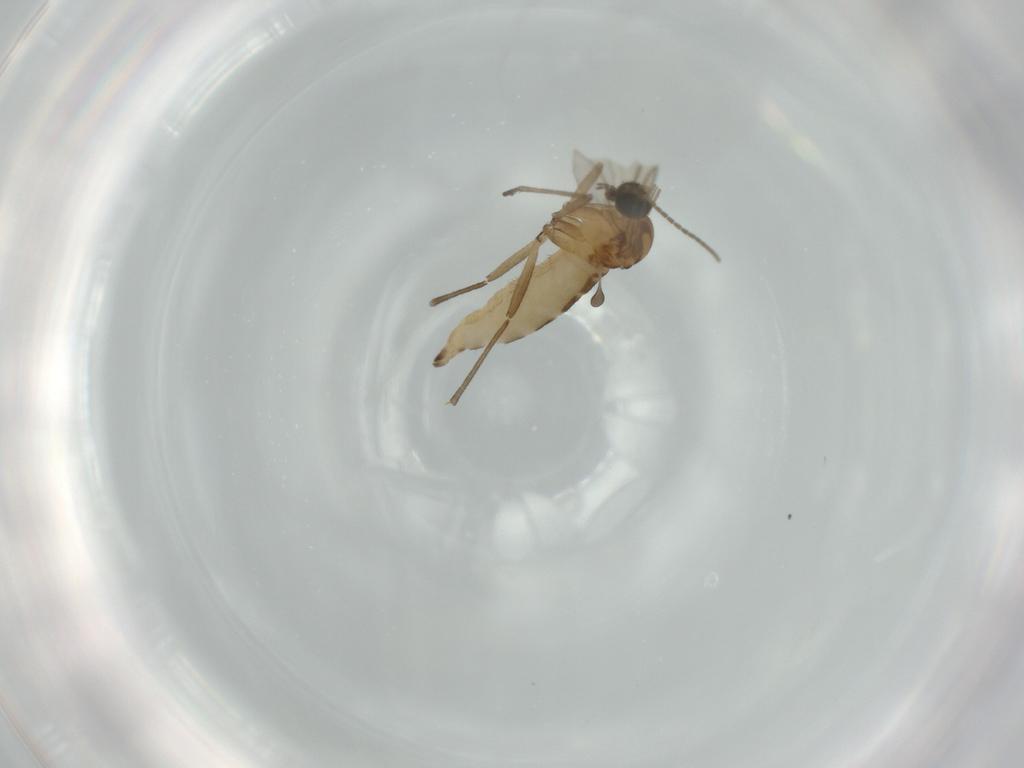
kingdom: Animalia
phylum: Arthropoda
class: Insecta
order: Diptera
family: Sciaridae
